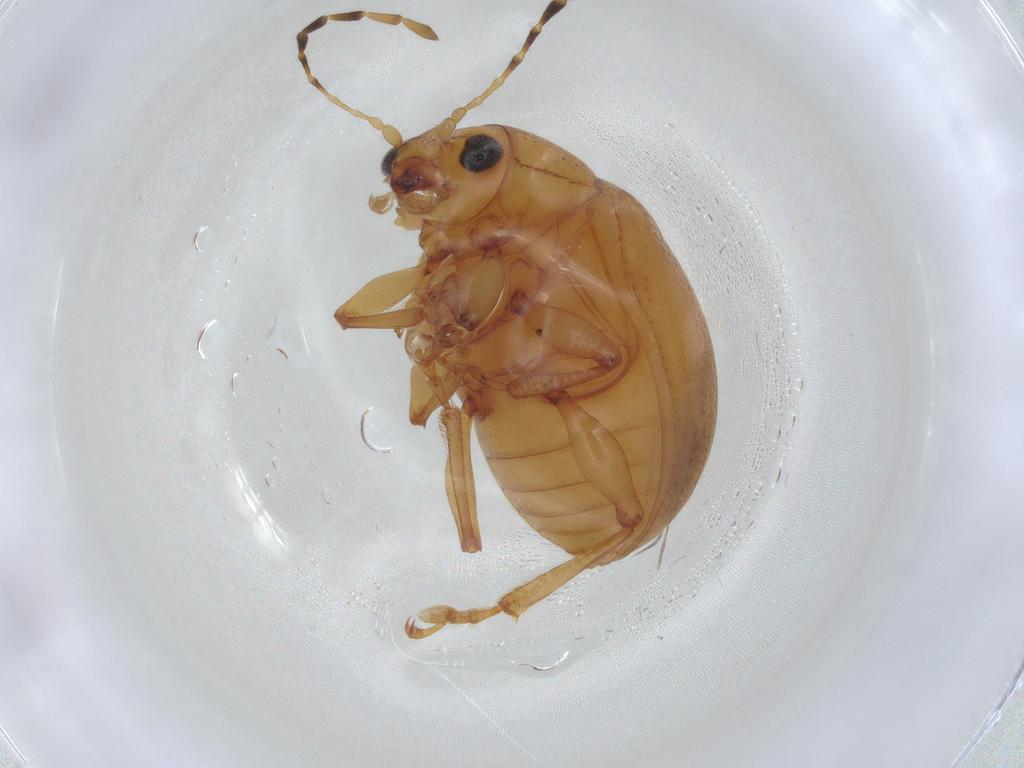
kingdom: Animalia
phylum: Arthropoda
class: Insecta
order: Coleoptera
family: Chrysomelidae
